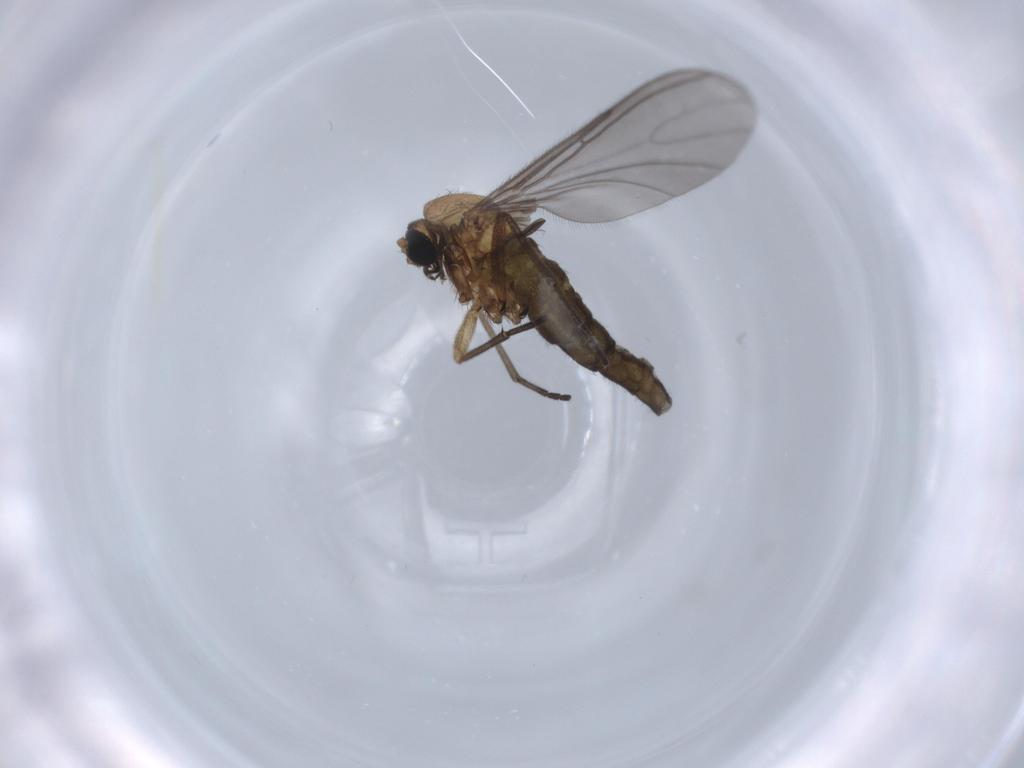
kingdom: Animalia
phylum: Arthropoda
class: Insecta
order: Diptera
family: Sciaridae
